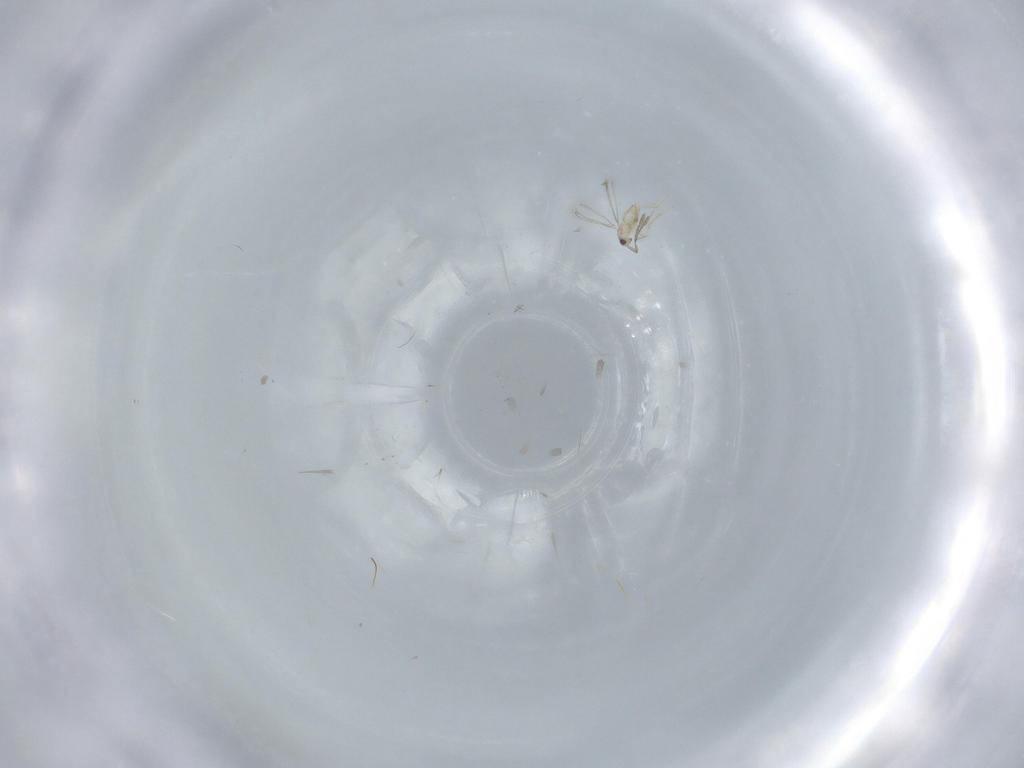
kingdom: Animalia
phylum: Arthropoda
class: Insecta
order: Hymenoptera
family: Mymaridae
